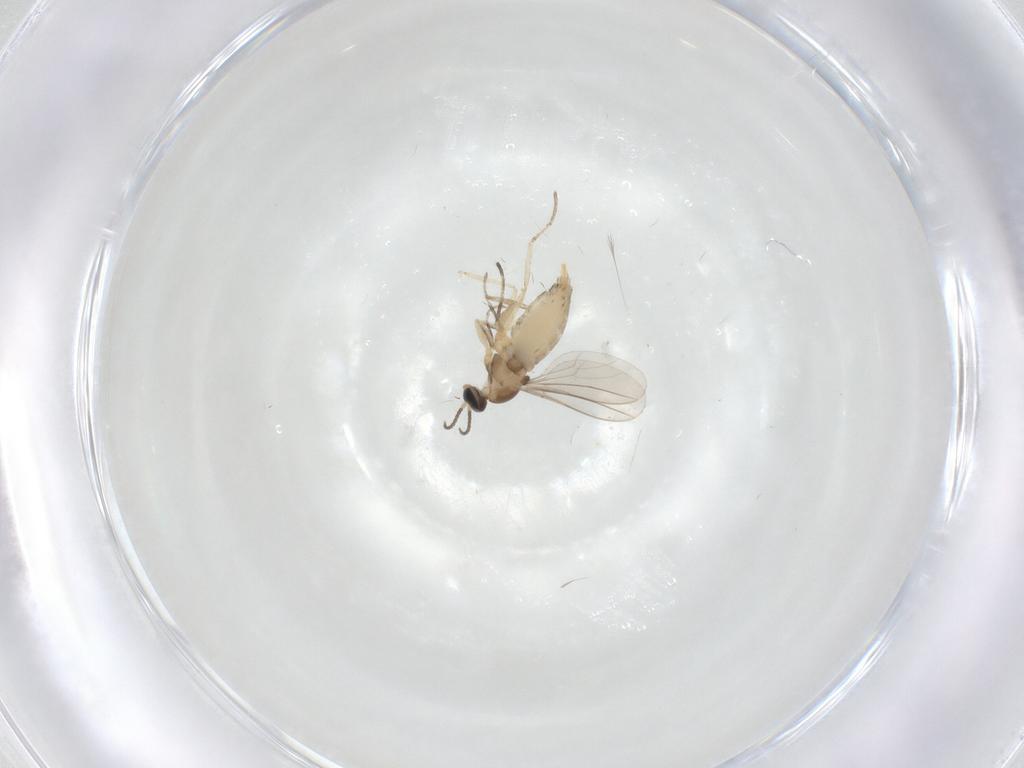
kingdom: Animalia
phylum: Arthropoda
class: Insecta
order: Diptera
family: Cecidomyiidae
